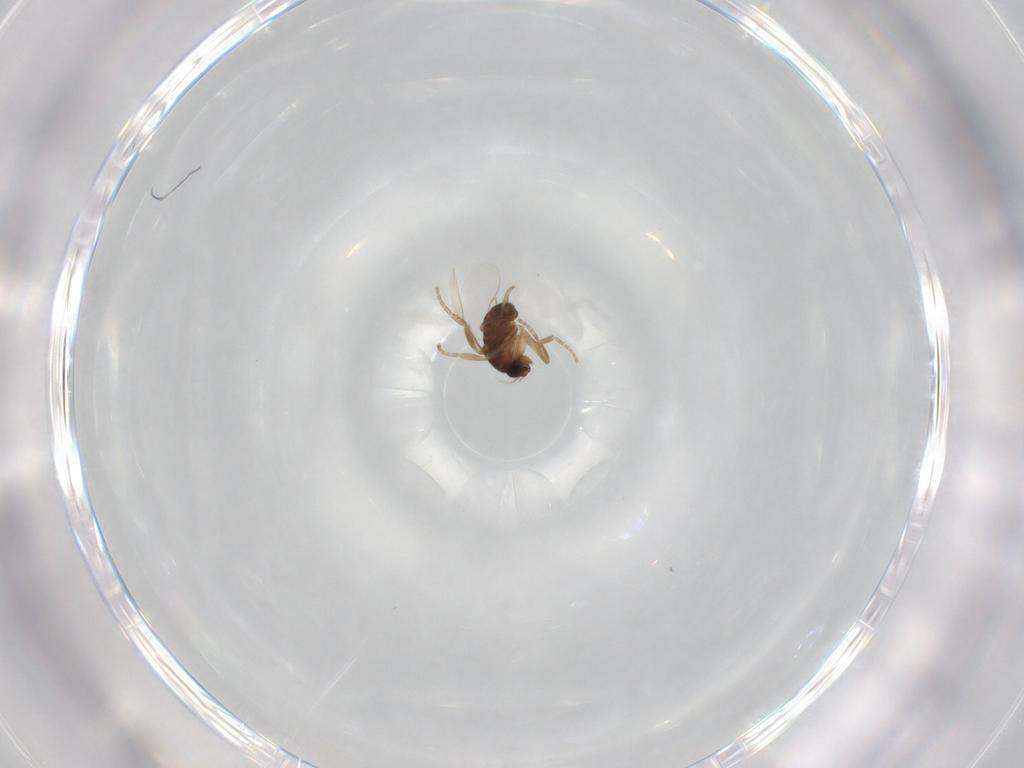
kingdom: Animalia
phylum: Arthropoda
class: Insecta
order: Diptera
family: Phoridae
